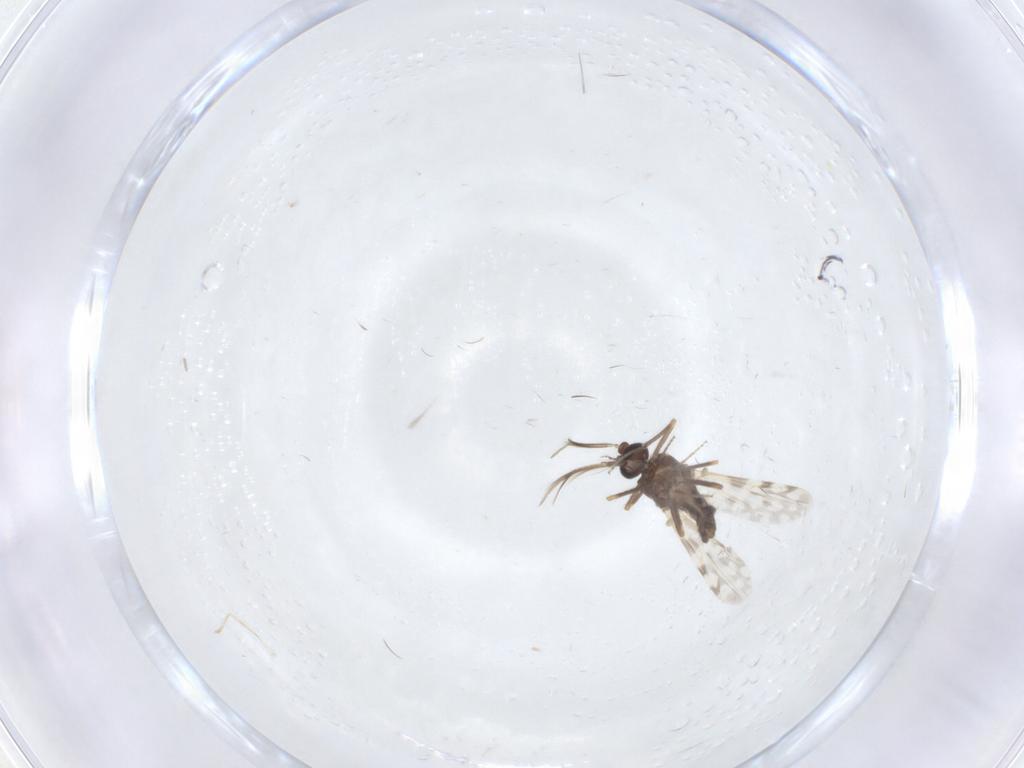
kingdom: Animalia
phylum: Arthropoda
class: Insecta
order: Diptera
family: Ceratopogonidae
